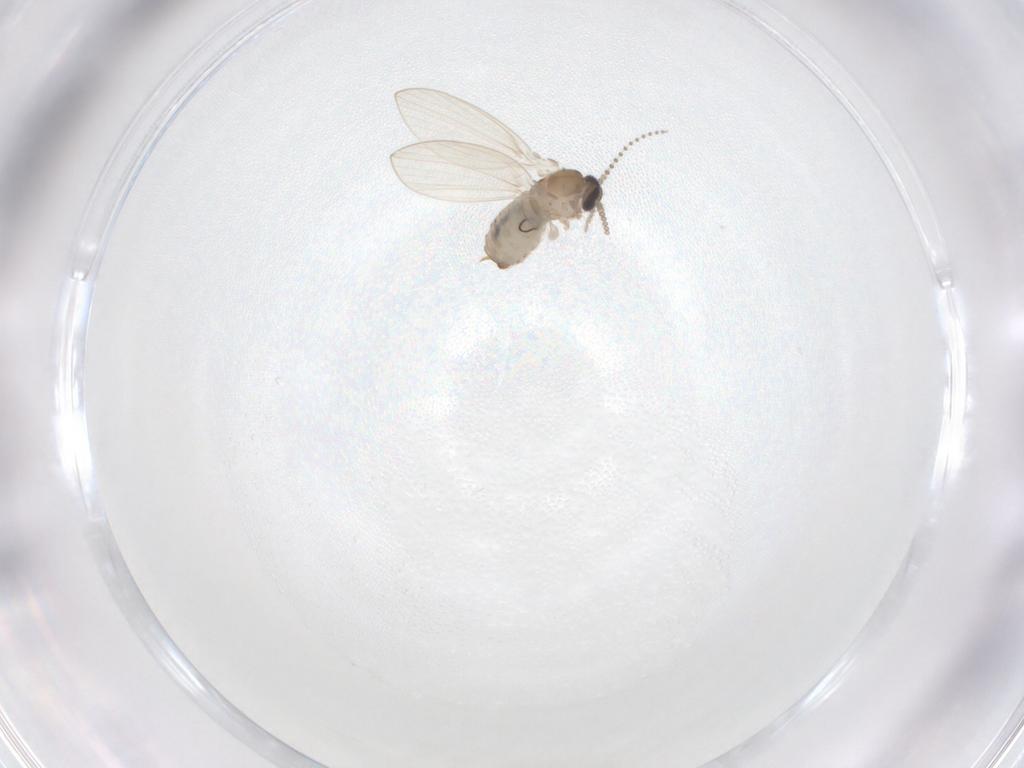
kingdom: Animalia
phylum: Arthropoda
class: Insecta
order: Diptera
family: Psychodidae
